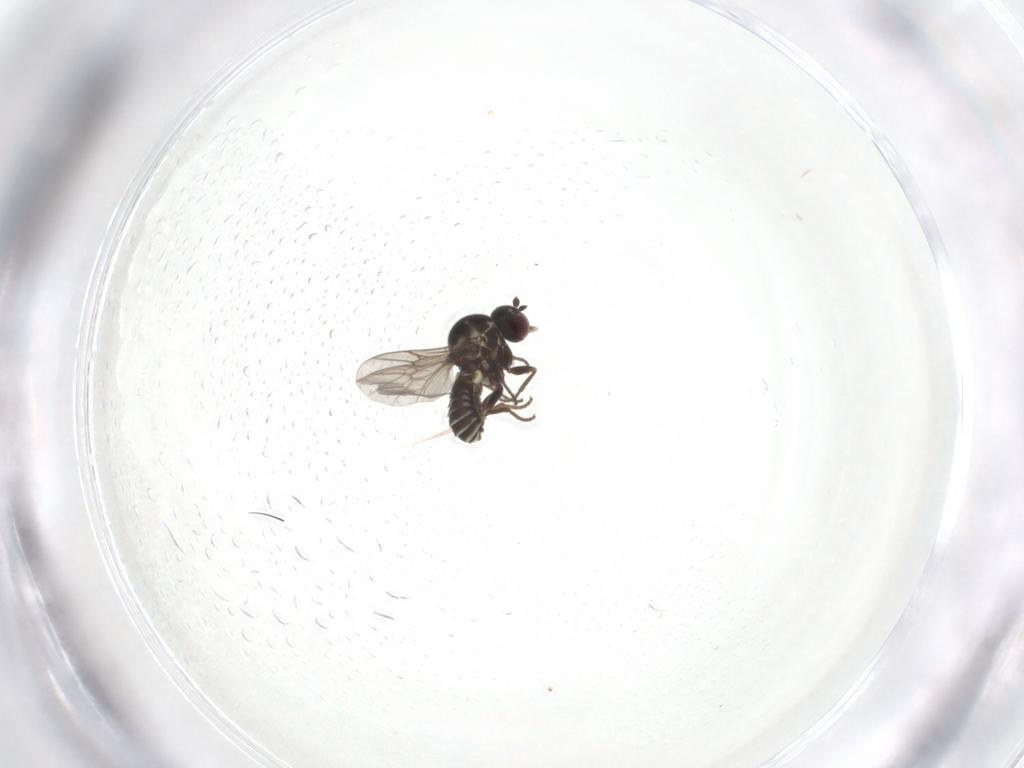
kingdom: Animalia
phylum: Arthropoda
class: Insecta
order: Diptera
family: Bombyliidae
